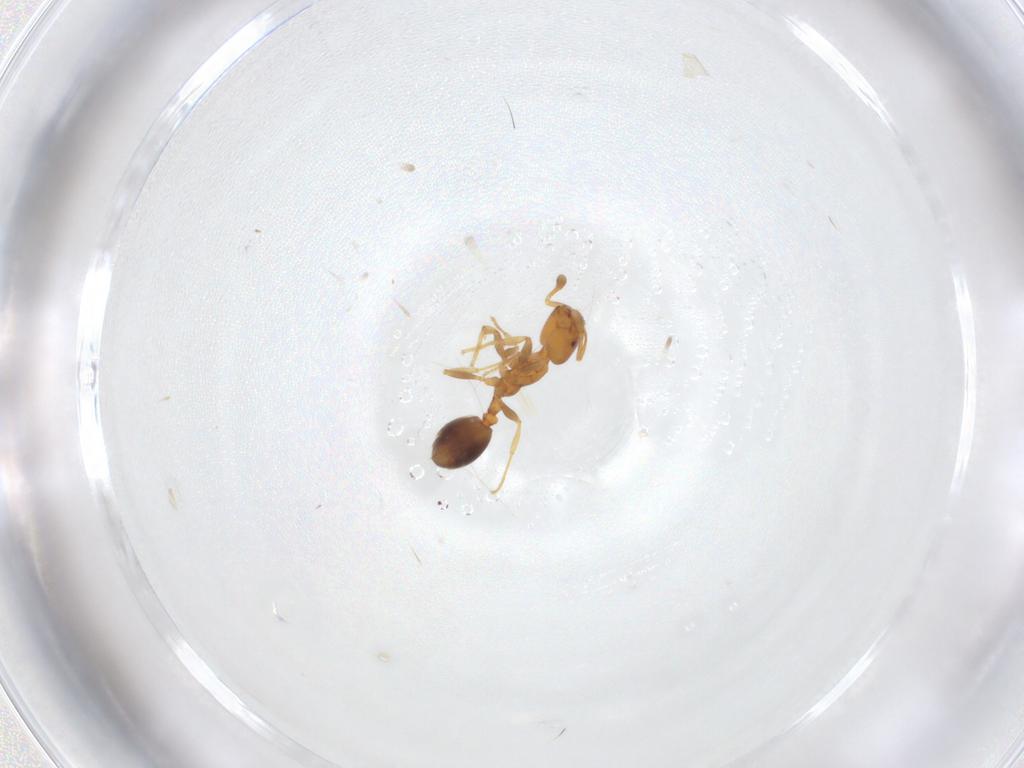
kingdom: Animalia
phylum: Arthropoda
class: Insecta
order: Hymenoptera
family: Formicidae
